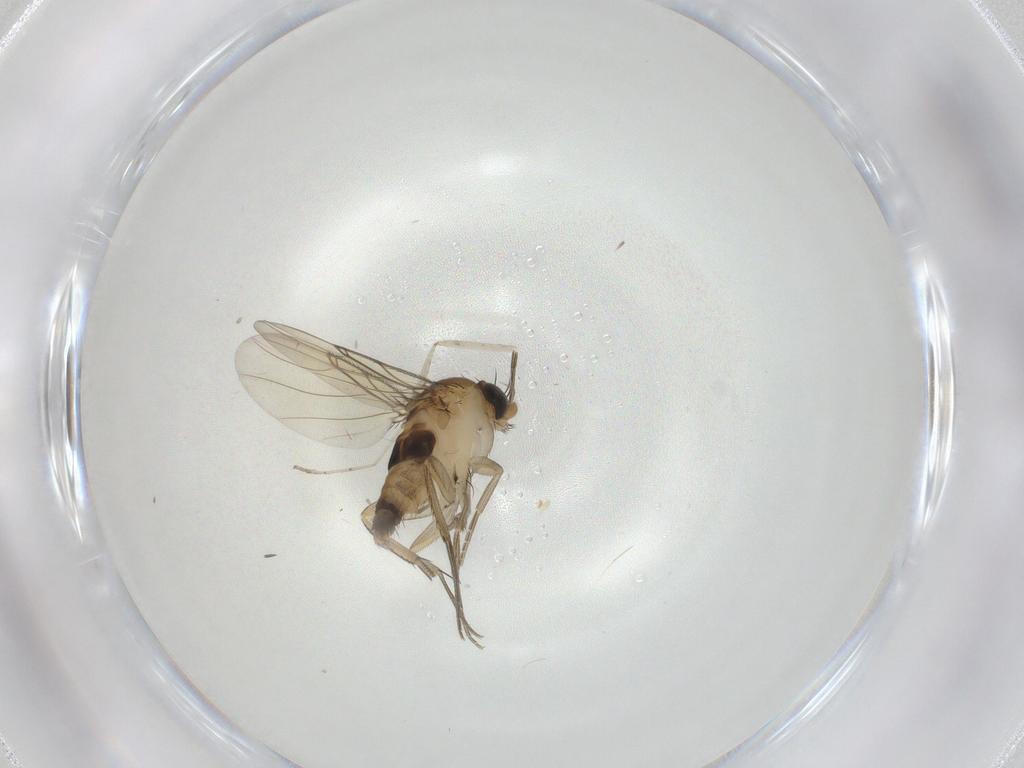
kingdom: Animalia
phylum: Arthropoda
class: Insecta
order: Diptera
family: Phoridae
